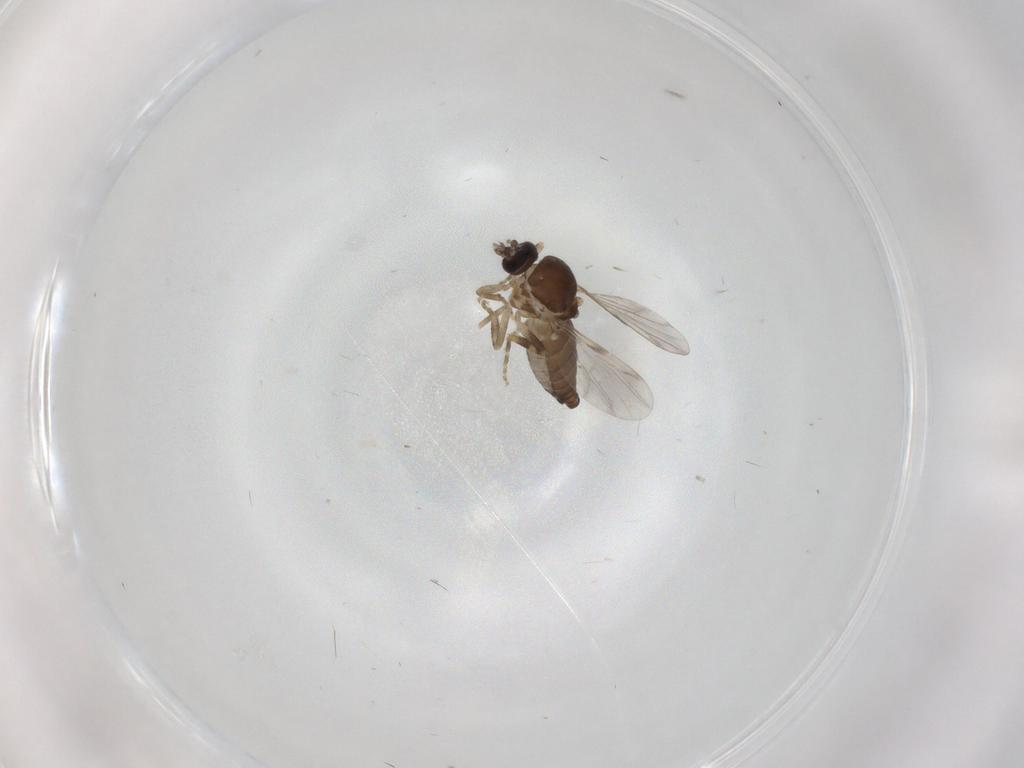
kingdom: Animalia
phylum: Arthropoda
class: Insecta
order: Diptera
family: Ceratopogonidae
